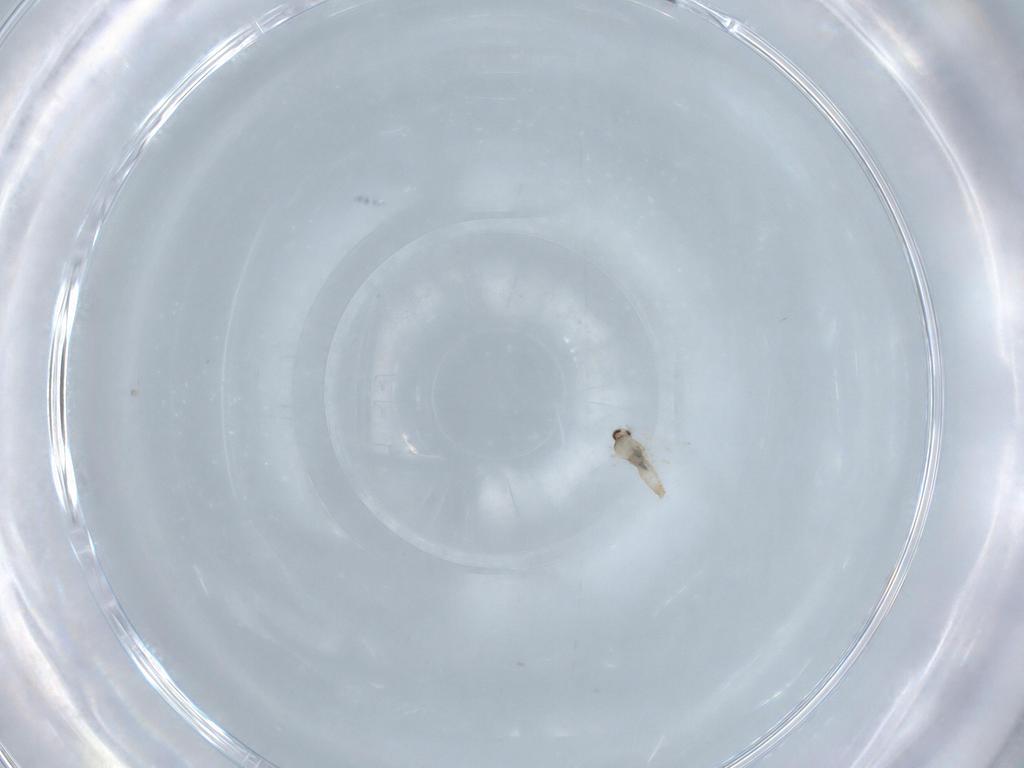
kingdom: Animalia
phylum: Arthropoda
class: Insecta
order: Diptera
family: Cecidomyiidae
